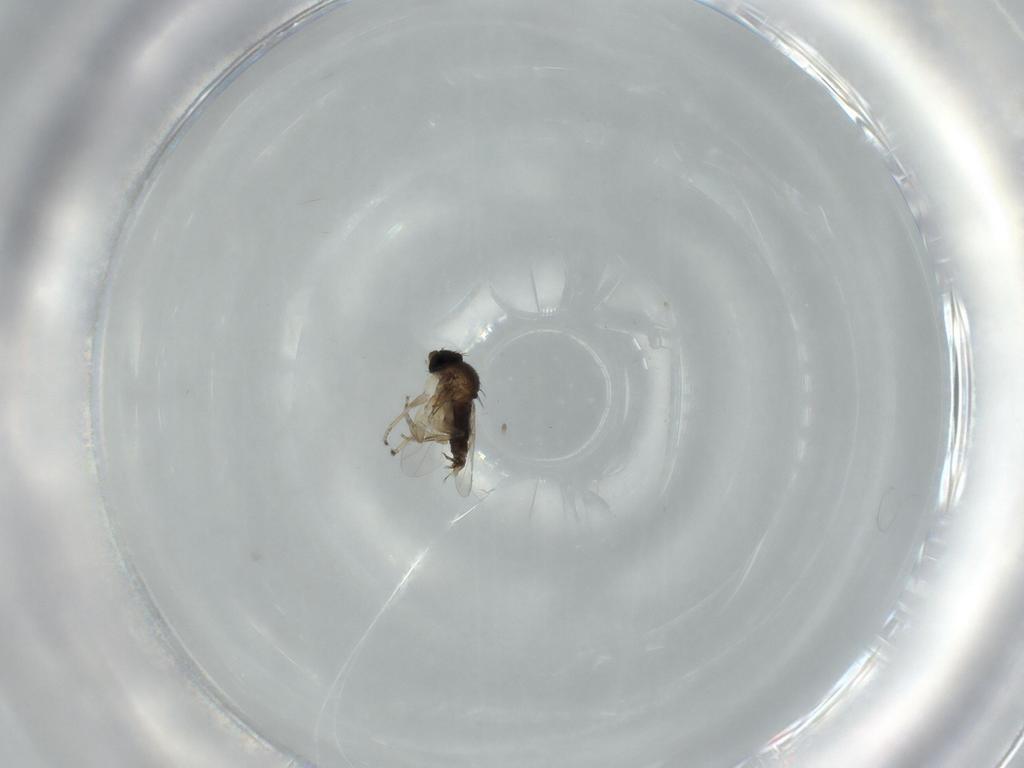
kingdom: Animalia
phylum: Arthropoda
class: Insecta
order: Diptera
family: Phoridae
